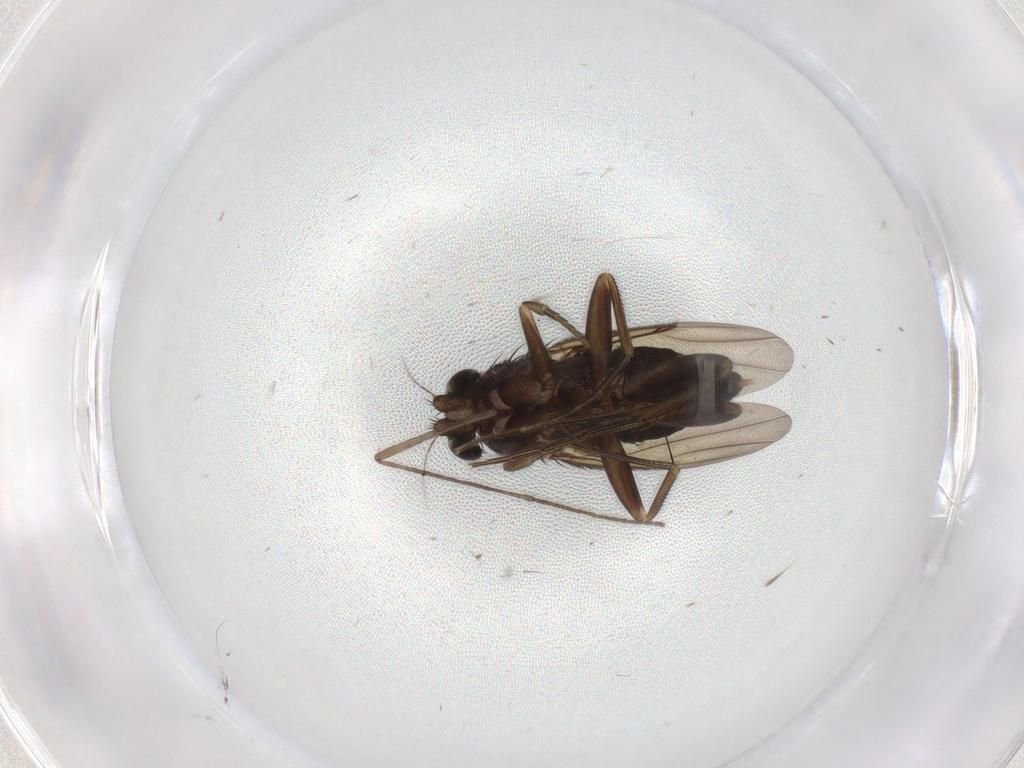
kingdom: Animalia
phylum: Arthropoda
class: Insecta
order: Diptera
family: Phoridae
